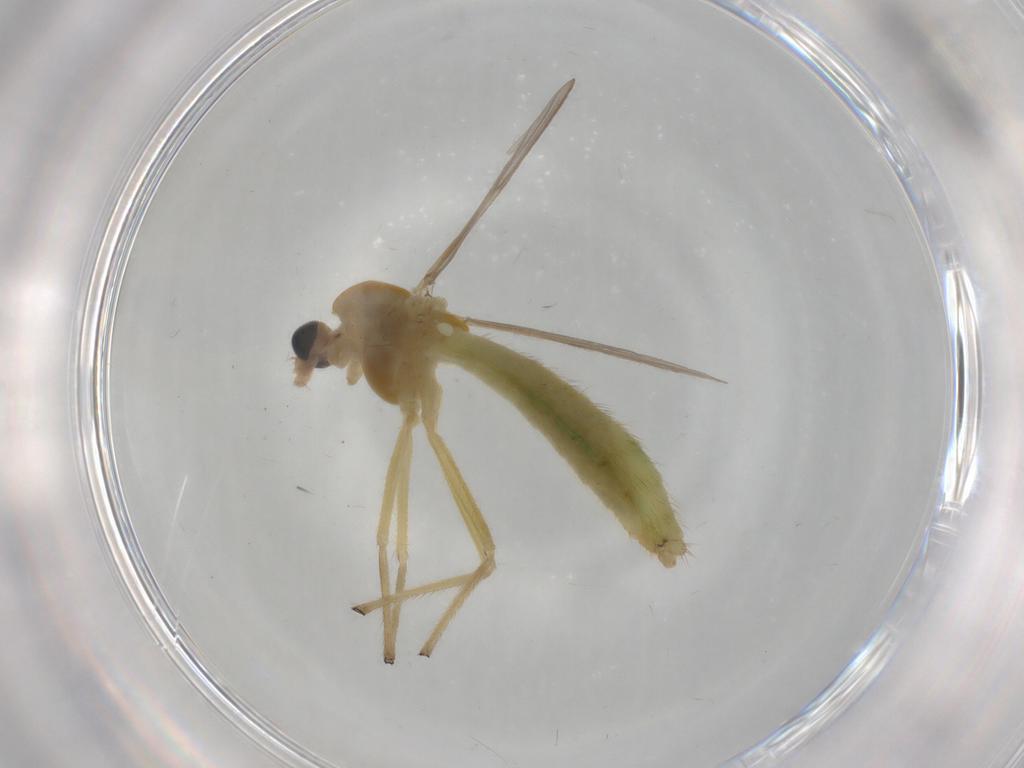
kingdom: Animalia
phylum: Arthropoda
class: Insecta
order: Diptera
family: Chironomidae
